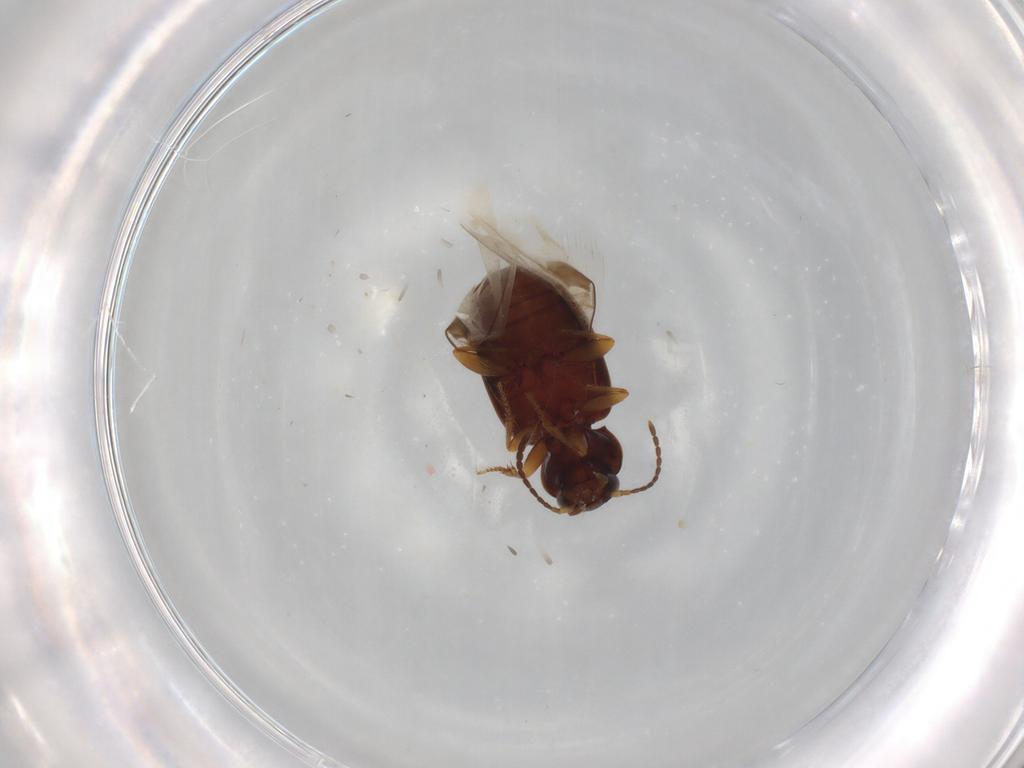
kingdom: Animalia
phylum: Arthropoda
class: Insecta
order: Coleoptera
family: Carabidae
